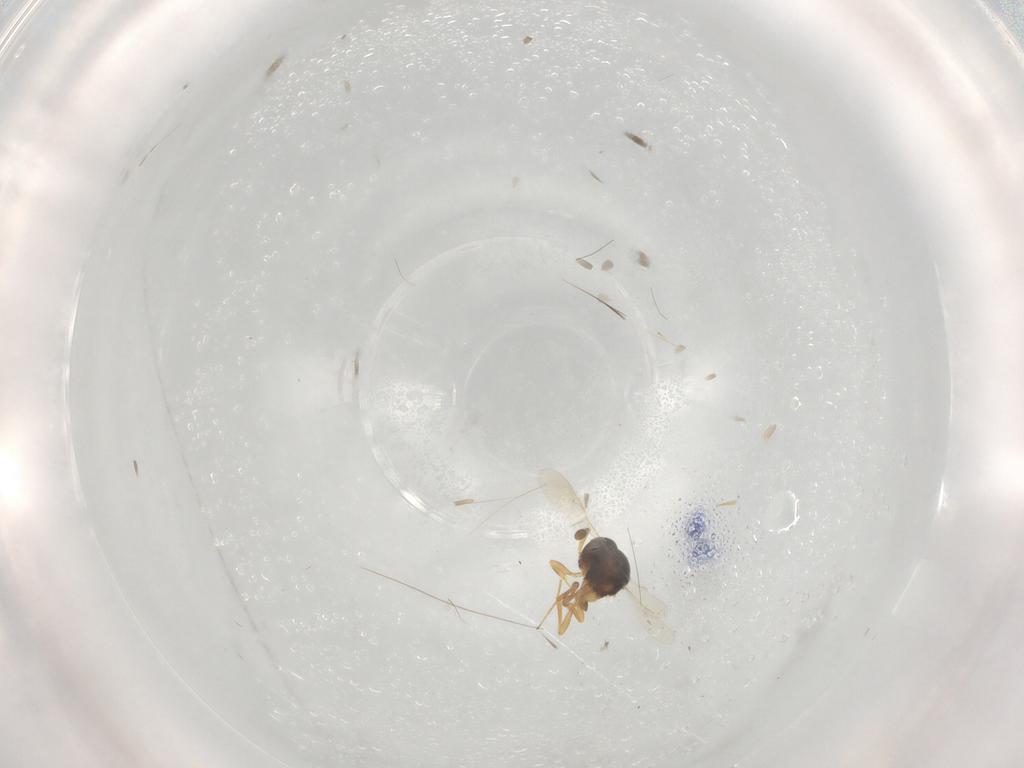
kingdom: Animalia
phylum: Arthropoda
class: Insecta
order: Hymenoptera
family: Scelionidae
